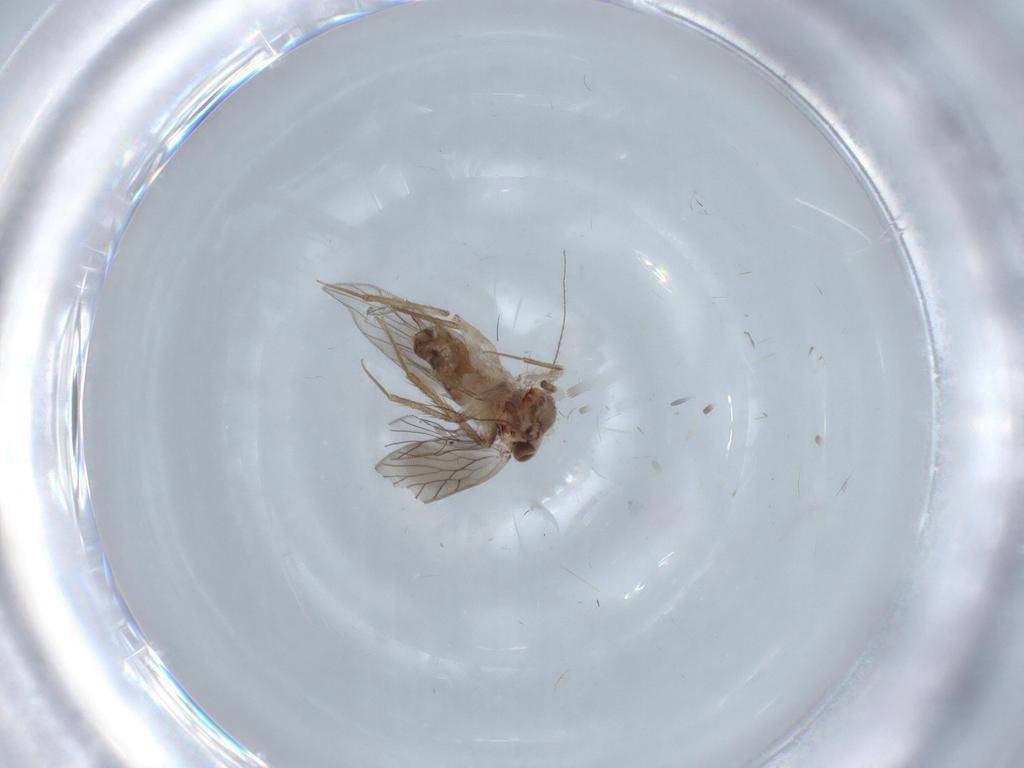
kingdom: Animalia
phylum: Arthropoda
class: Insecta
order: Psocodea
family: Lepidopsocidae
